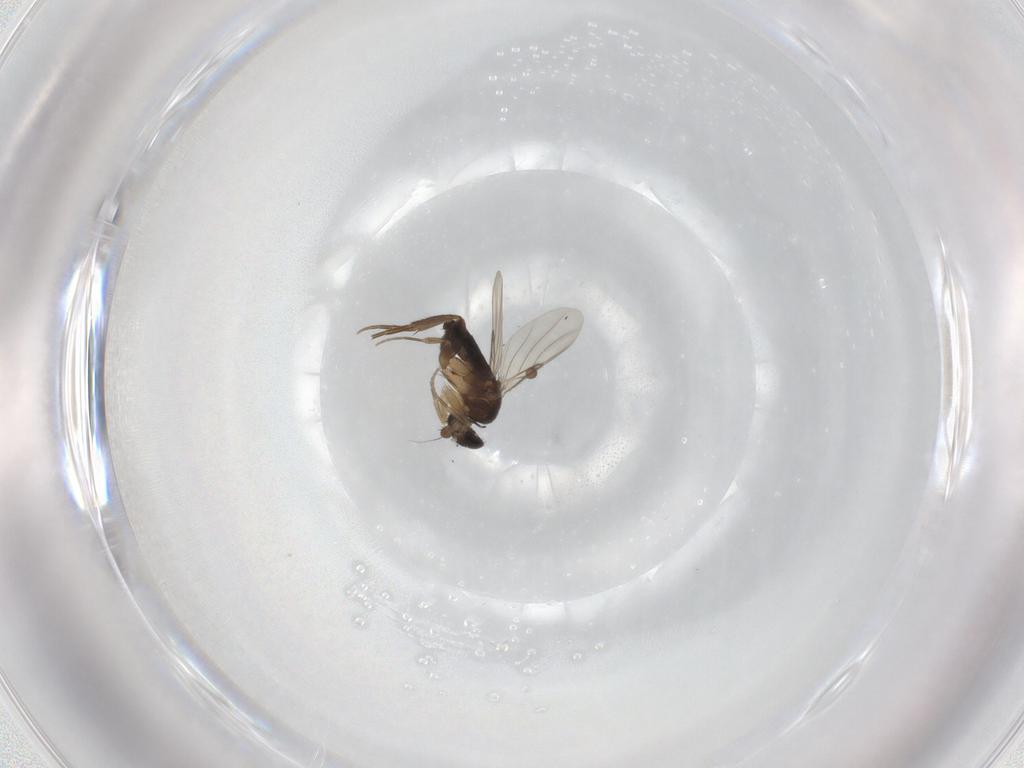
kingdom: Animalia
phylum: Arthropoda
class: Insecta
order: Diptera
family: Phoridae
